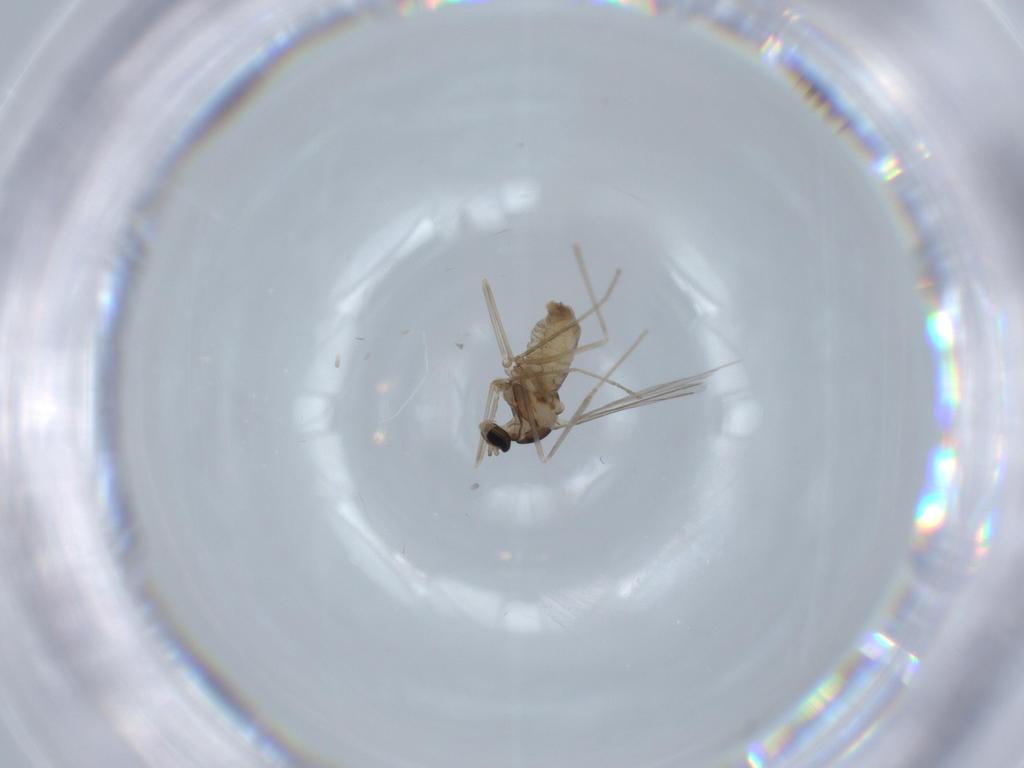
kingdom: Animalia
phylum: Arthropoda
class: Insecta
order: Diptera
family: Cecidomyiidae
